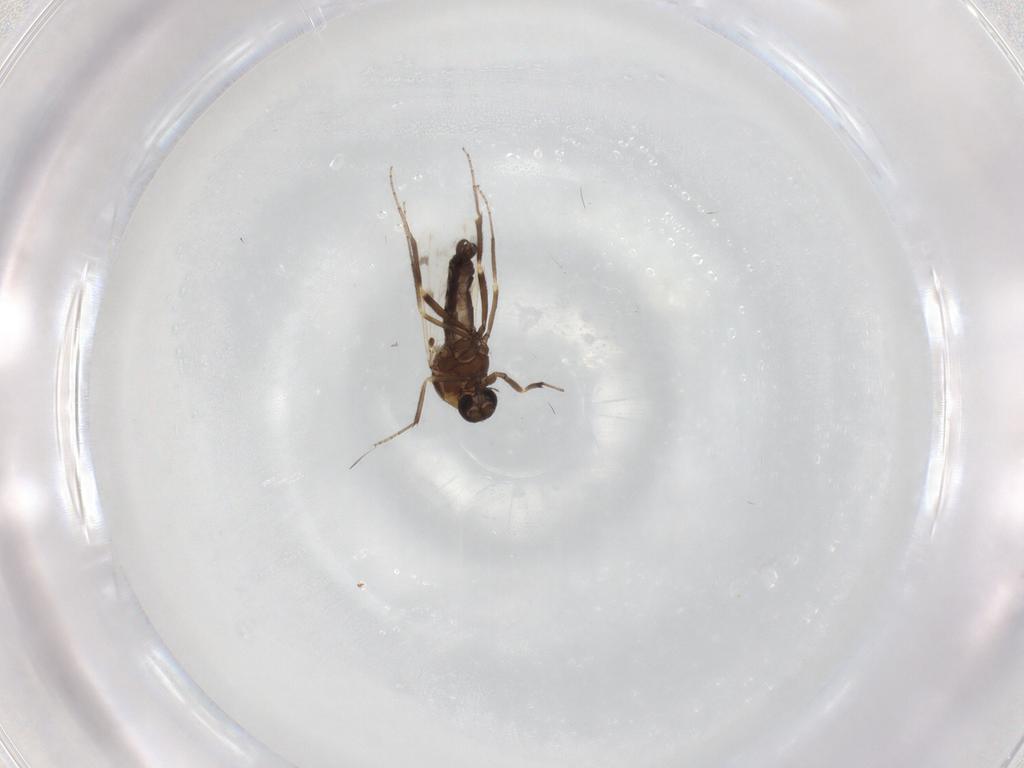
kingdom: Animalia
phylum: Arthropoda
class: Insecta
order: Diptera
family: Ceratopogonidae
